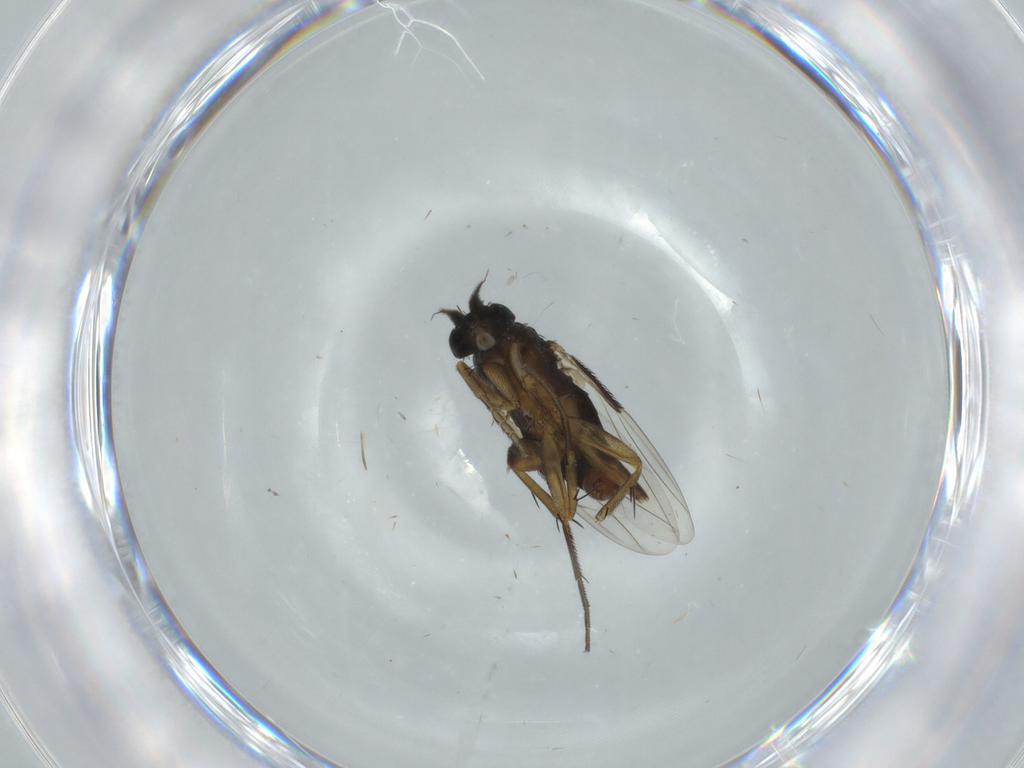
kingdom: Animalia
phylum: Arthropoda
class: Insecta
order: Diptera
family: Phoridae
